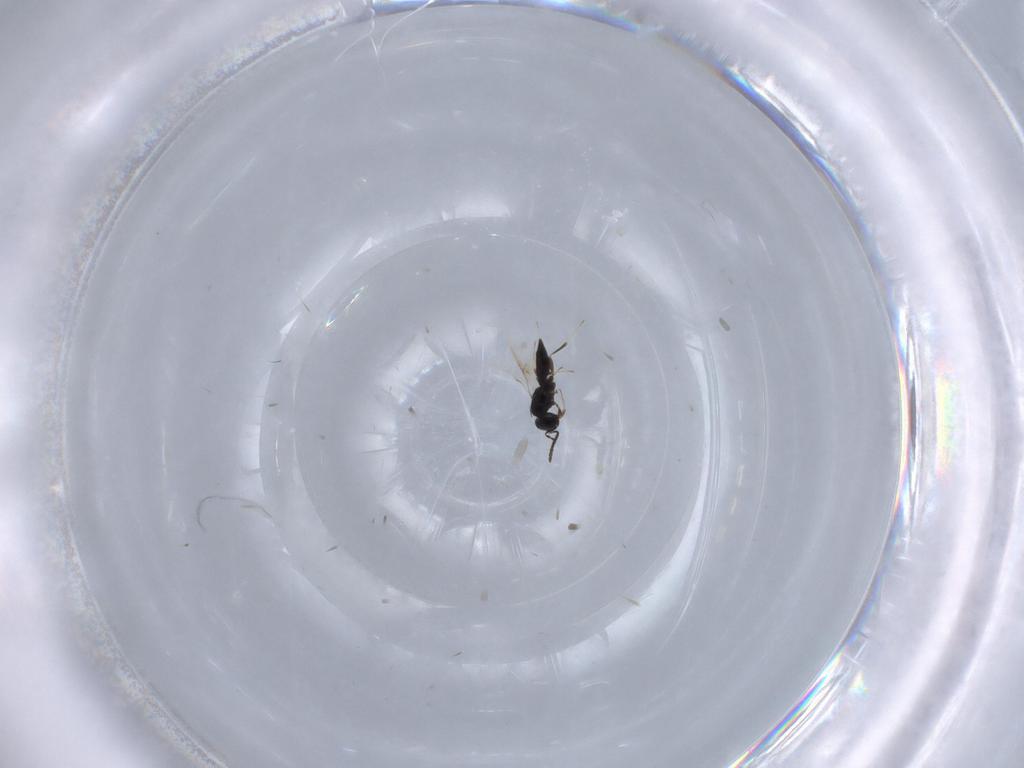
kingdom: Animalia
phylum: Arthropoda
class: Insecta
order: Hymenoptera
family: Scelionidae
